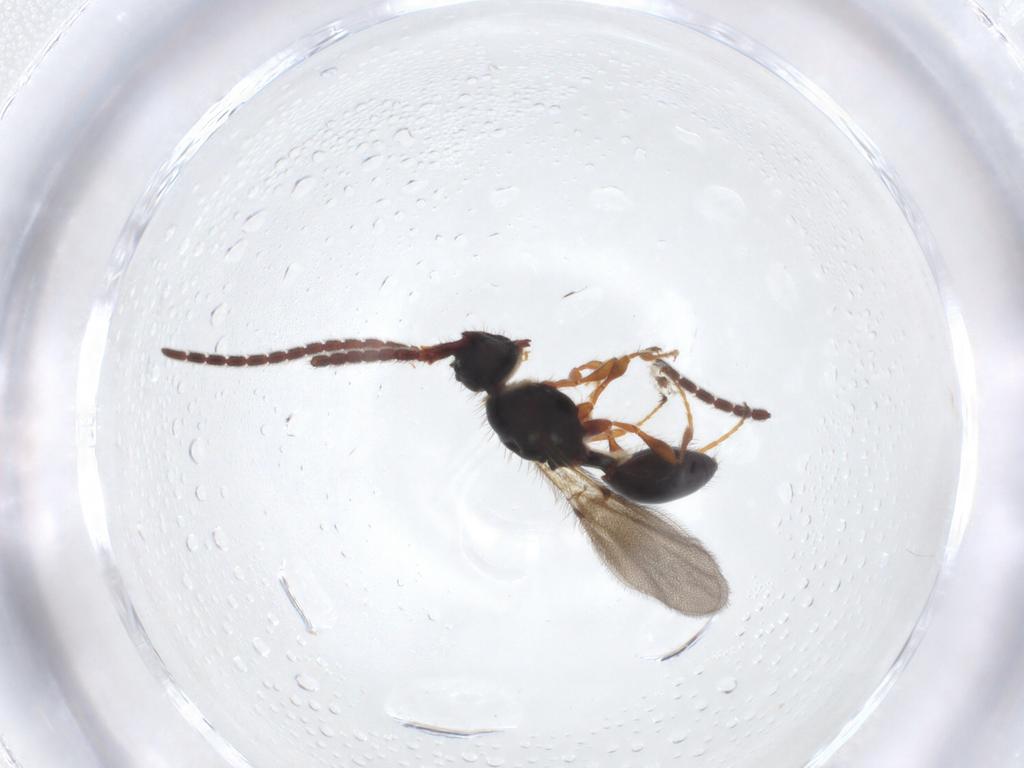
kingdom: Animalia
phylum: Arthropoda
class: Insecta
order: Hymenoptera
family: Diapriidae
